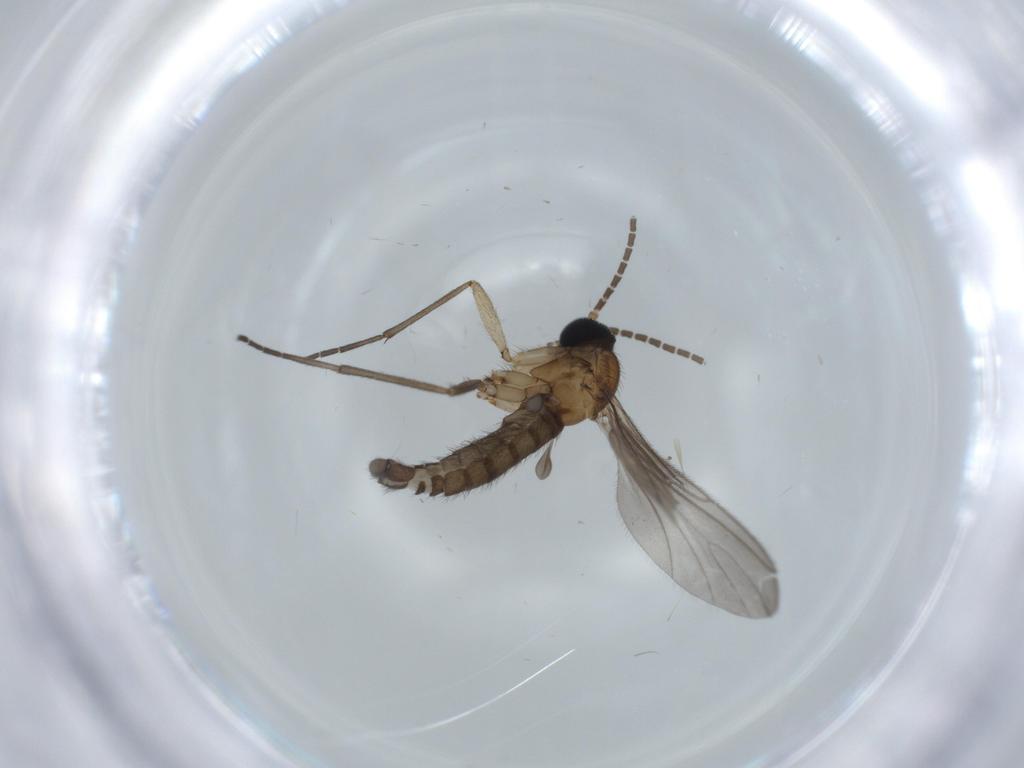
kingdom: Animalia
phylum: Arthropoda
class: Insecta
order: Diptera
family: Sciaridae
